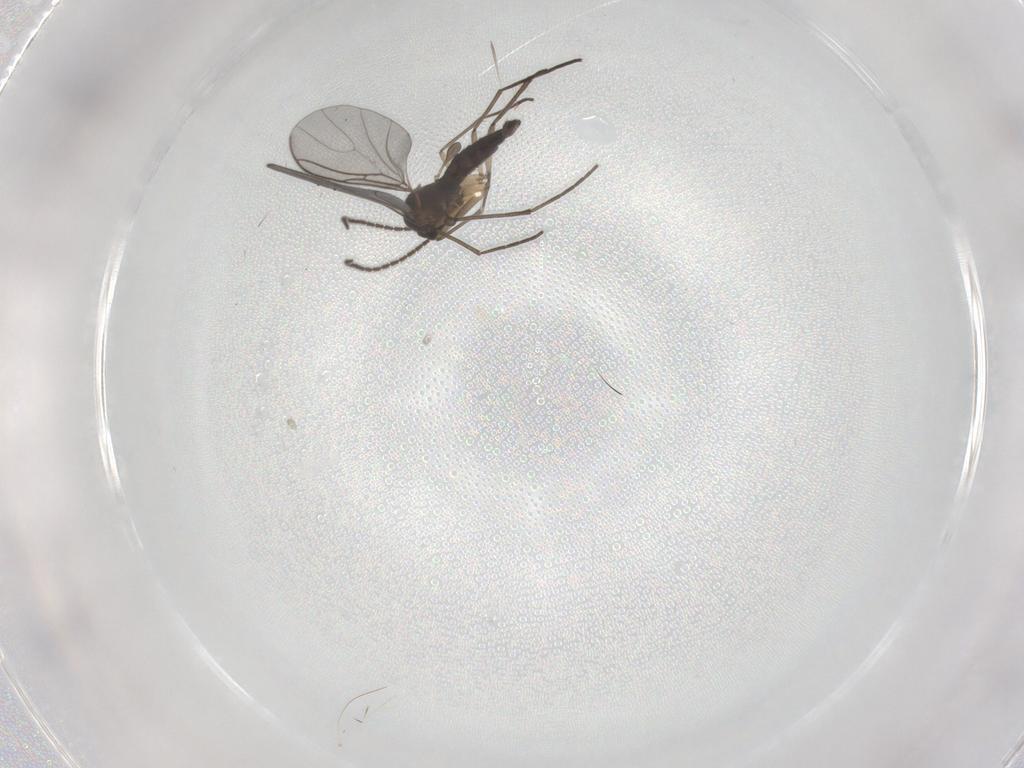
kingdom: Animalia
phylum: Arthropoda
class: Insecta
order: Diptera
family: Sciaridae
